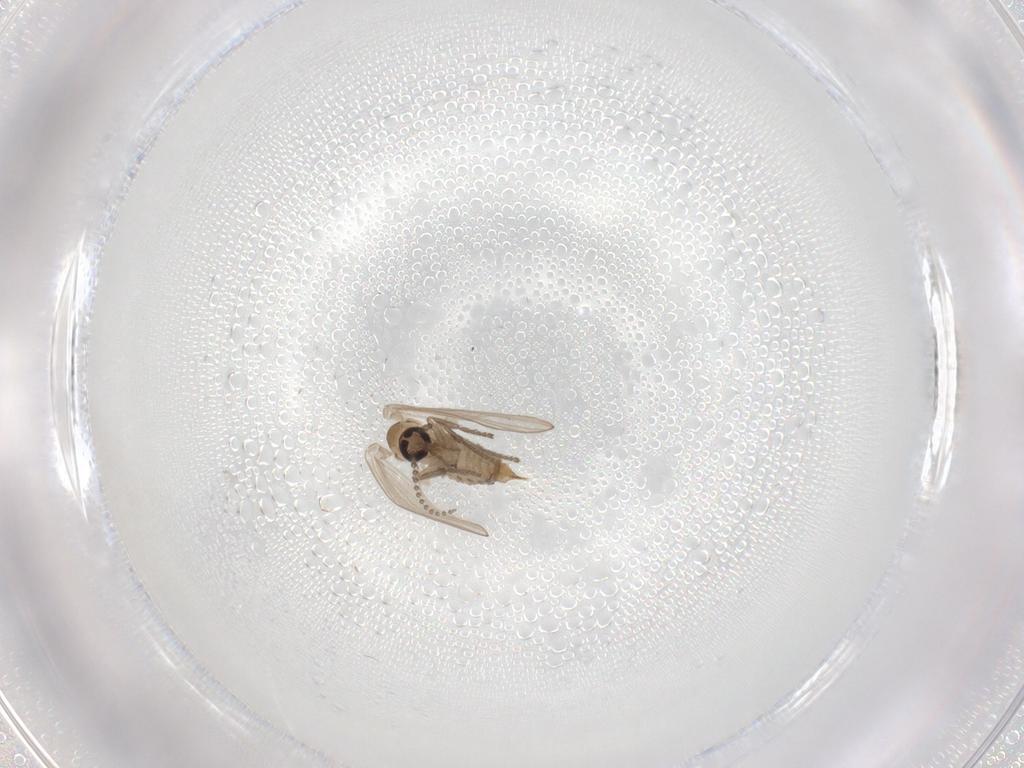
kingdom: Animalia
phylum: Arthropoda
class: Insecta
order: Diptera
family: Psychodidae
